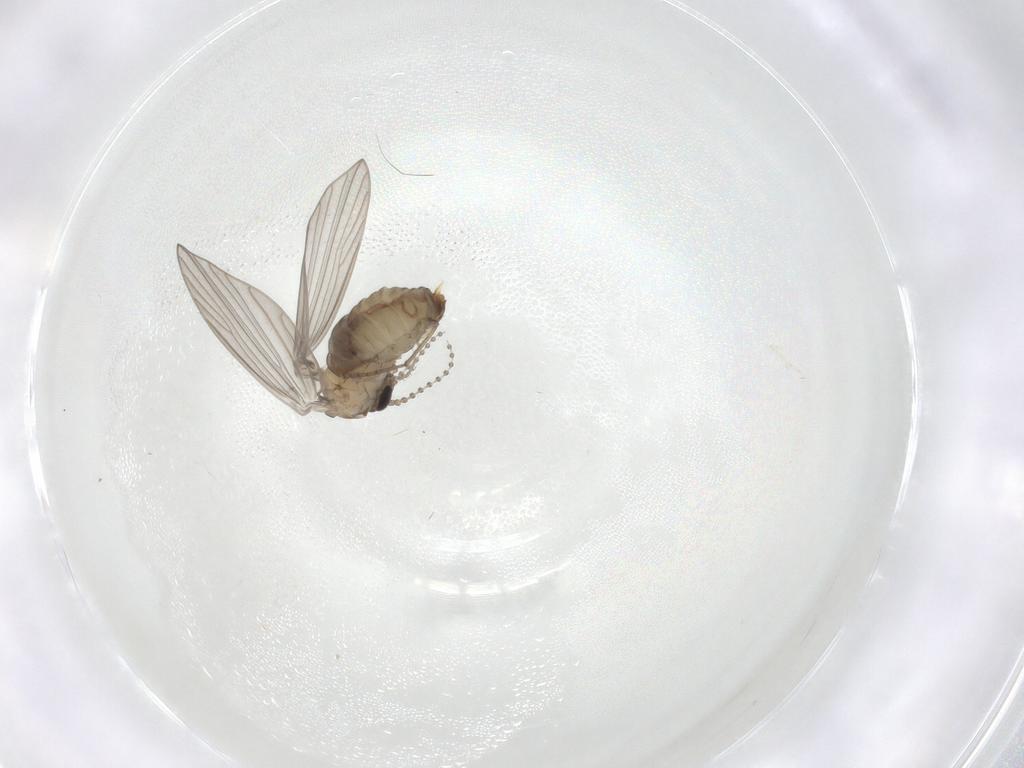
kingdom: Animalia
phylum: Arthropoda
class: Insecta
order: Diptera
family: Psychodidae
